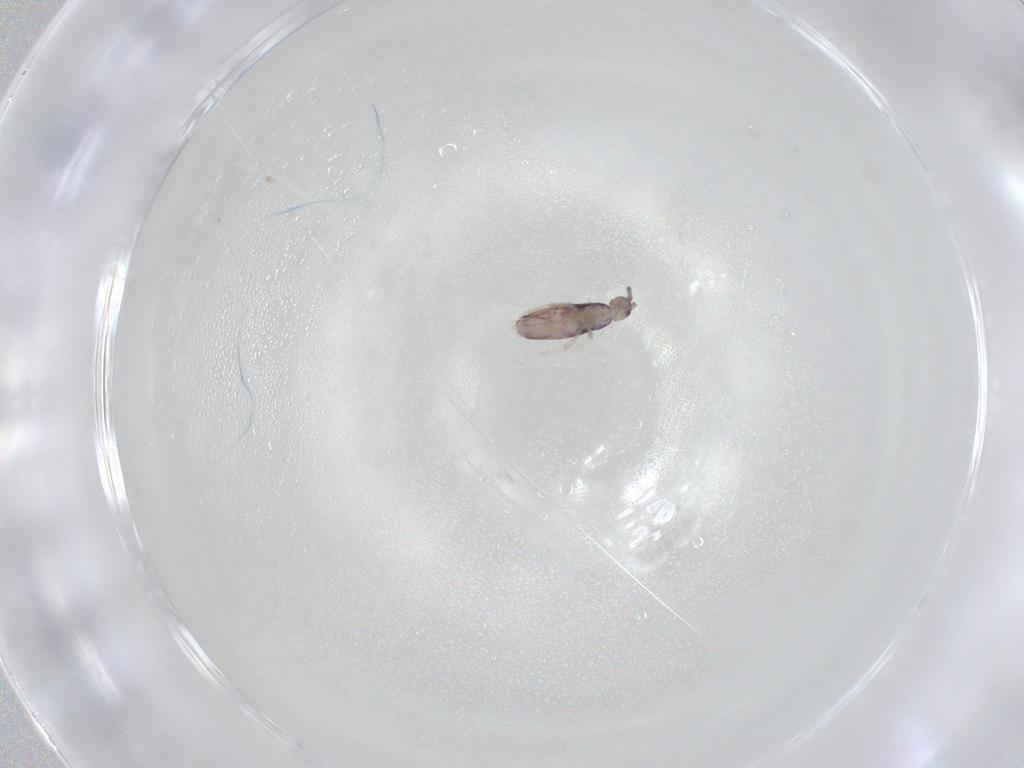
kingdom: Animalia
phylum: Arthropoda
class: Collembola
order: Entomobryomorpha
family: Entomobryidae
